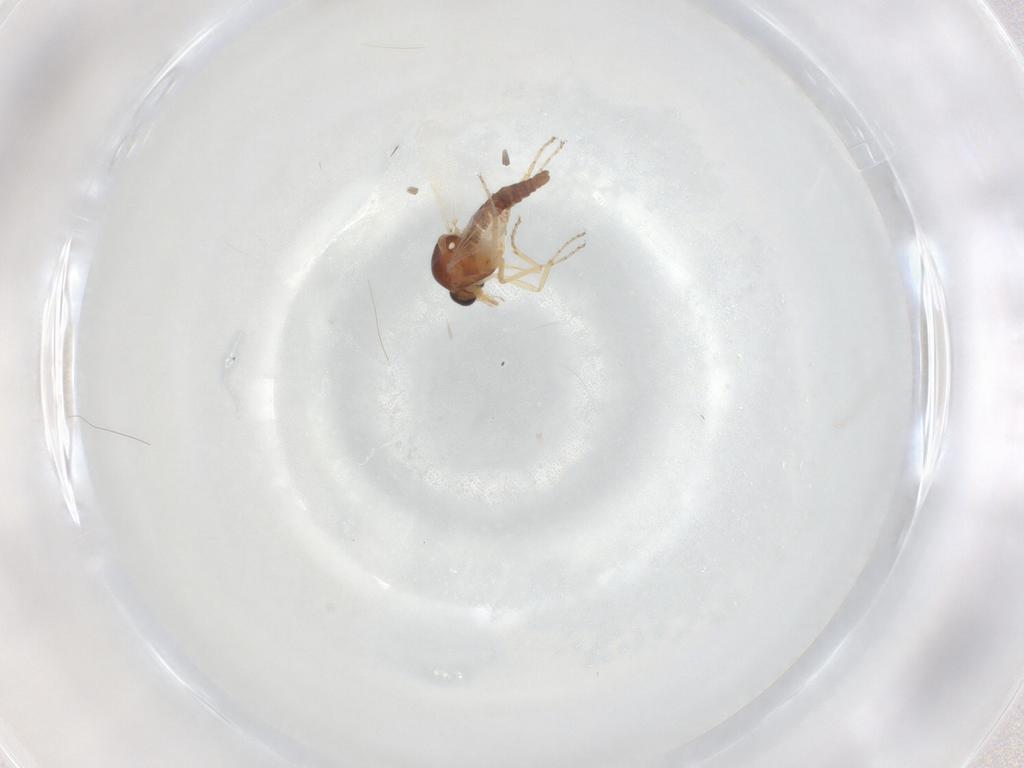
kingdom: Animalia
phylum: Arthropoda
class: Insecta
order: Diptera
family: Ceratopogonidae
